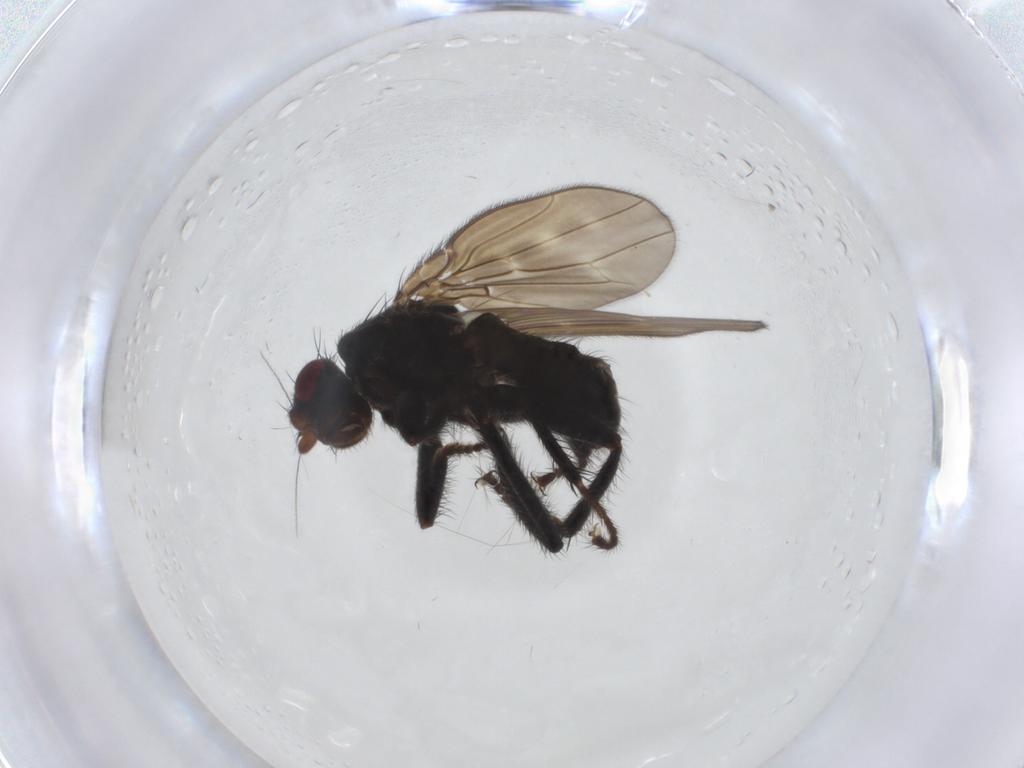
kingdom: Animalia
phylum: Arthropoda
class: Insecta
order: Diptera
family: Sphaeroceridae
